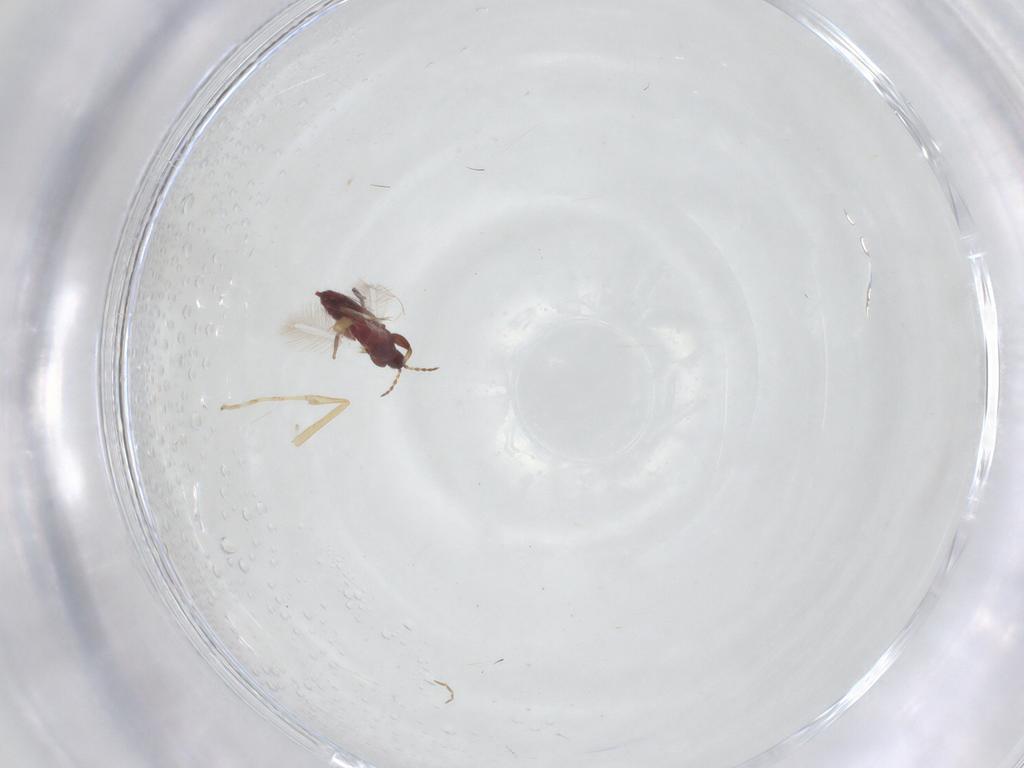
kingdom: Animalia
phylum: Arthropoda
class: Insecta
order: Thysanoptera
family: Phlaeothripidae
